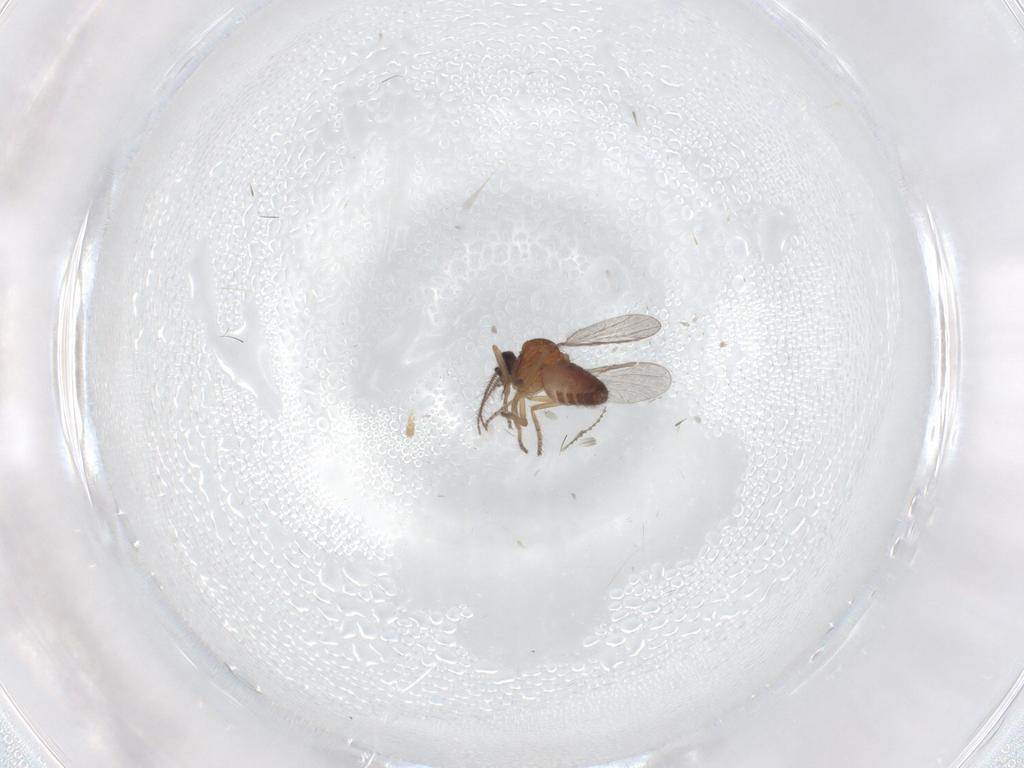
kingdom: Animalia
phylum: Arthropoda
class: Insecta
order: Diptera
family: Ceratopogonidae
